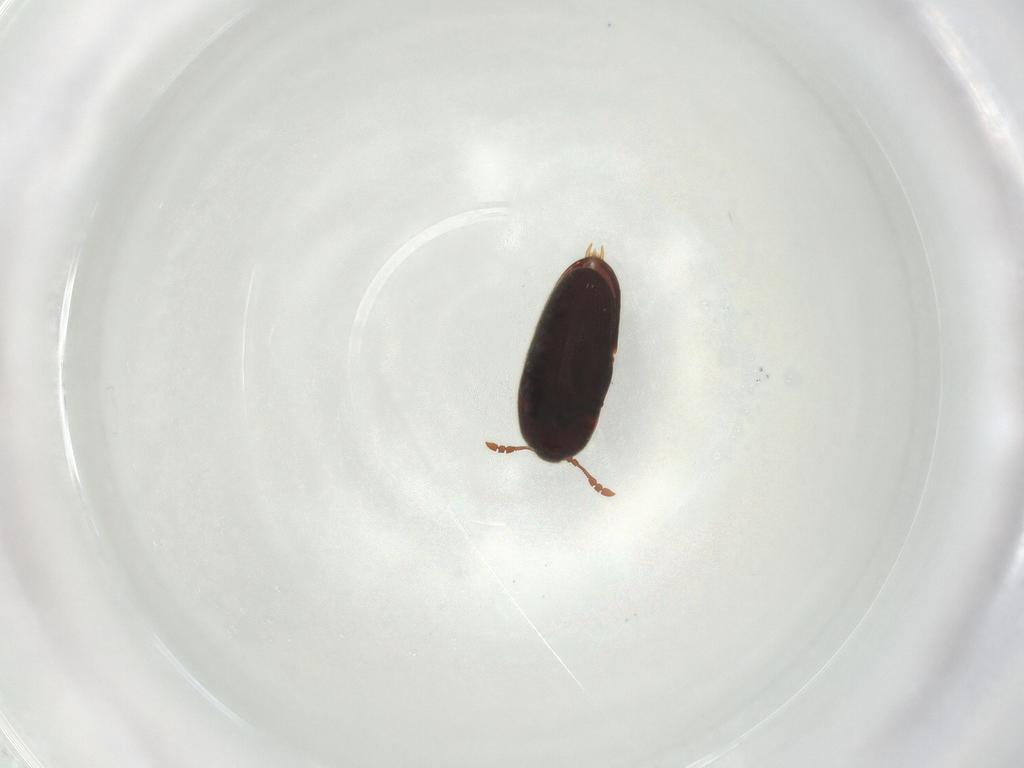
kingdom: Animalia
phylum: Arthropoda
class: Insecta
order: Coleoptera
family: Throscidae
